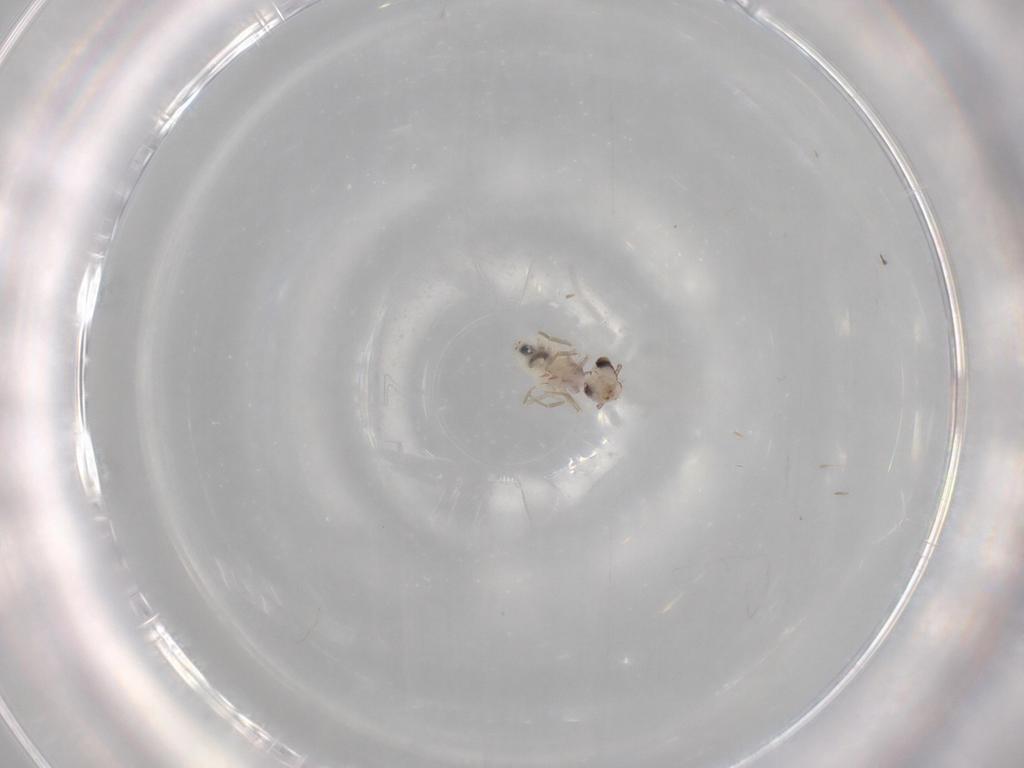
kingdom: Animalia
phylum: Arthropoda
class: Insecta
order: Psocodea
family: Lepidopsocidae
